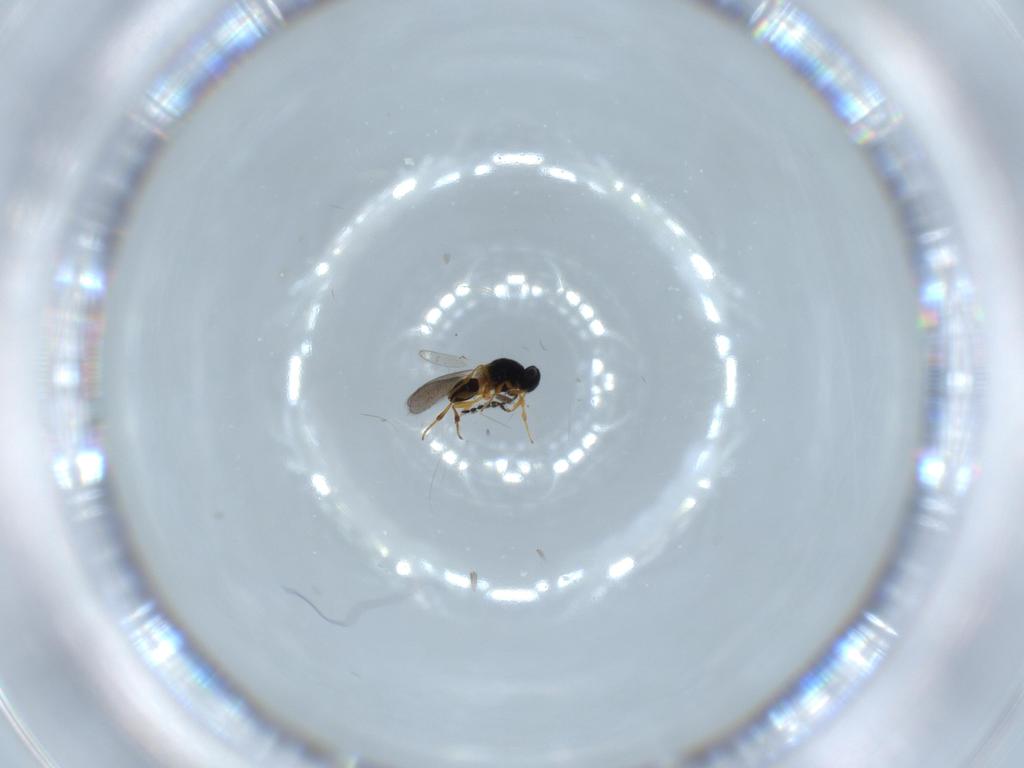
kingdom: Animalia
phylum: Arthropoda
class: Insecta
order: Hymenoptera
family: Platygastridae
